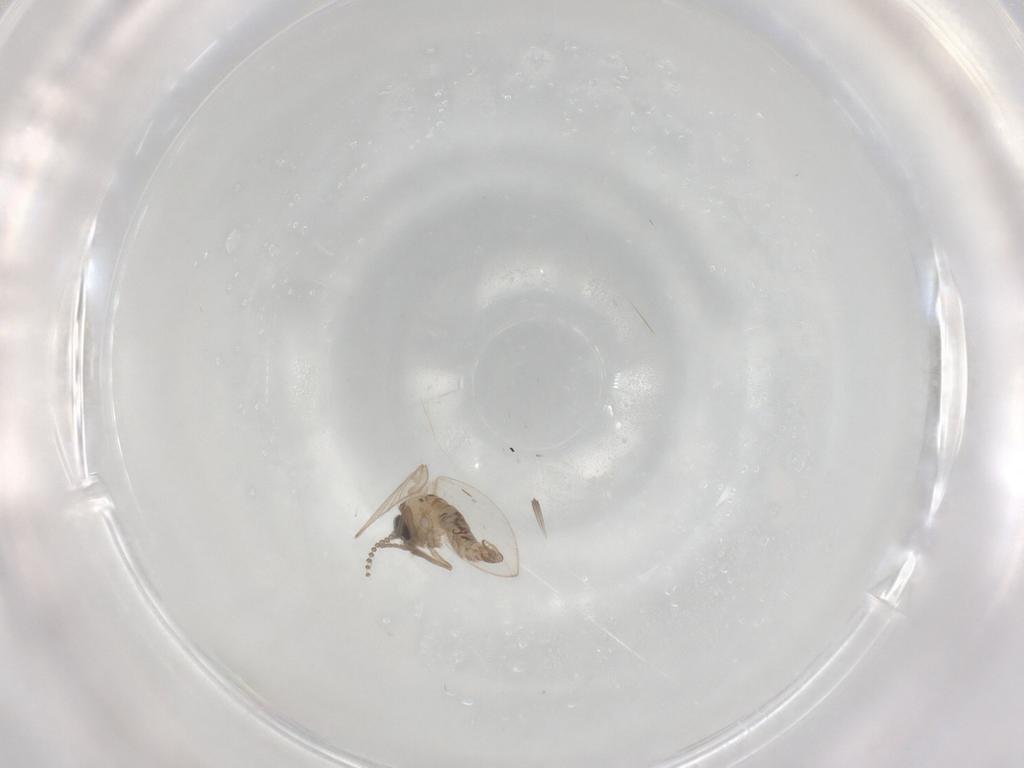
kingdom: Animalia
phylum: Arthropoda
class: Insecta
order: Diptera
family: Psychodidae
